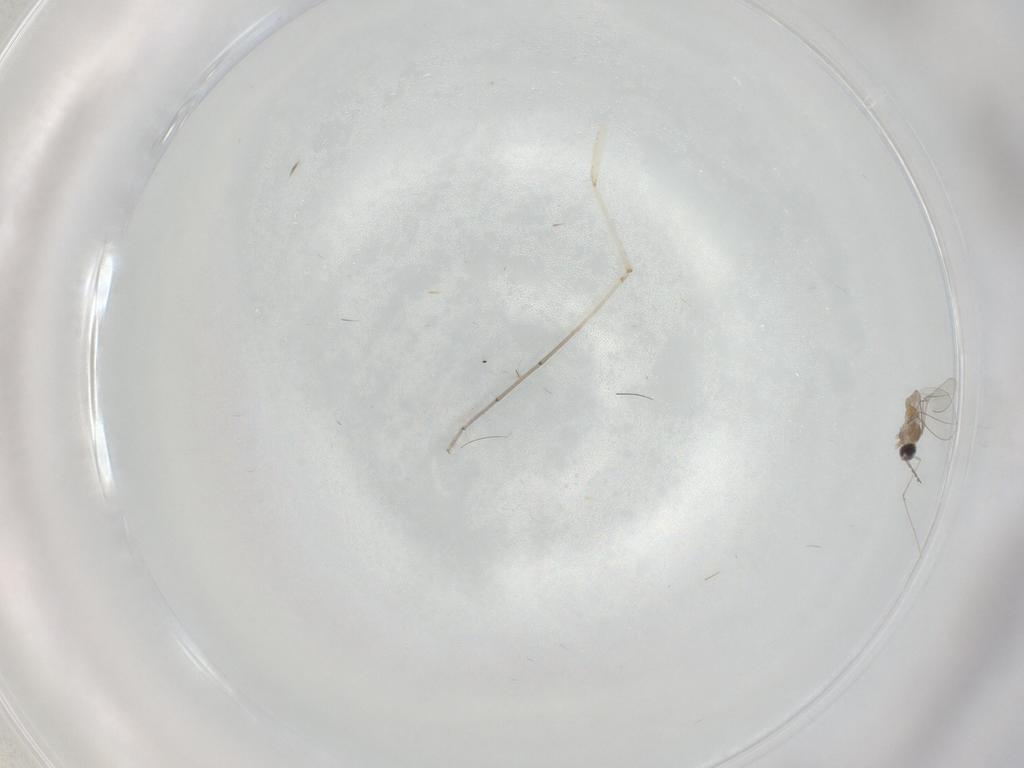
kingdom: Animalia
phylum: Arthropoda
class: Insecta
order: Diptera
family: Cecidomyiidae
